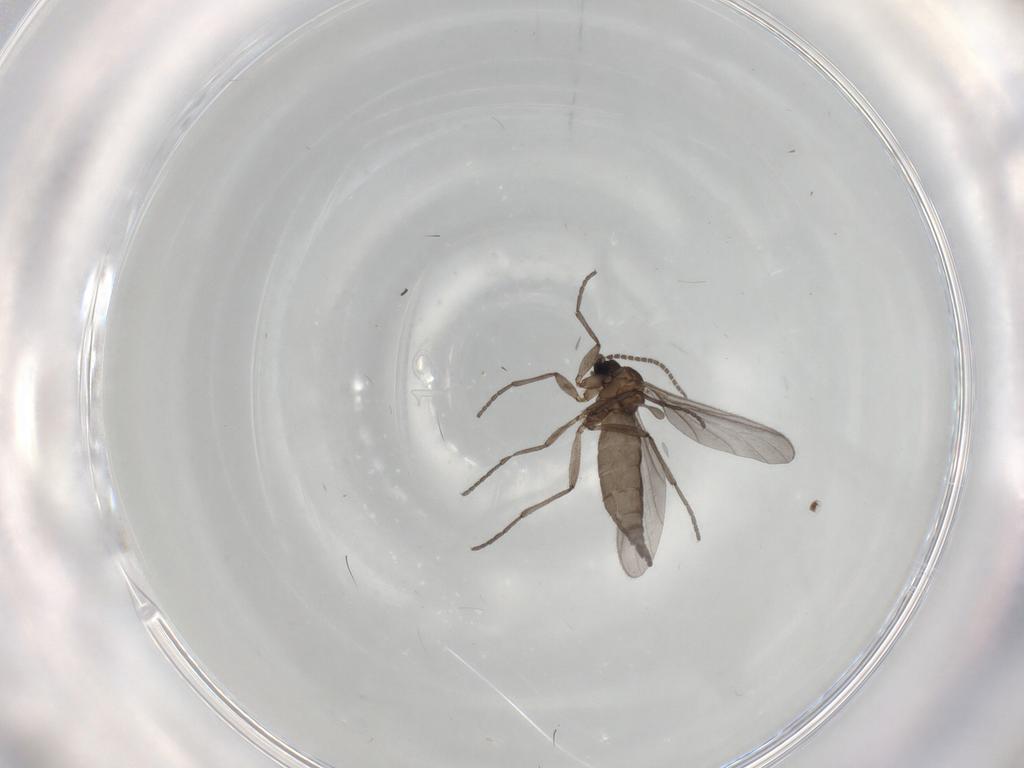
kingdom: Animalia
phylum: Arthropoda
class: Insecta
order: Diptera
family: Sciaridae
